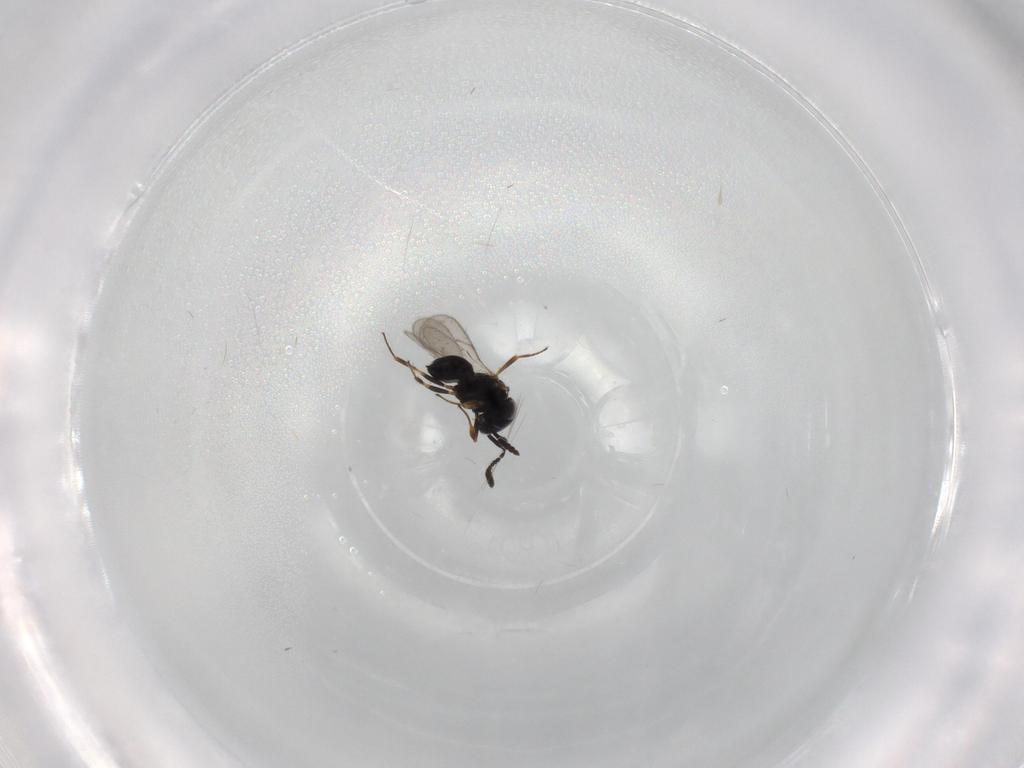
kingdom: Animalia
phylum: Arthropoda
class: Insecta
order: Hymenoptera
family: Scelionidae
